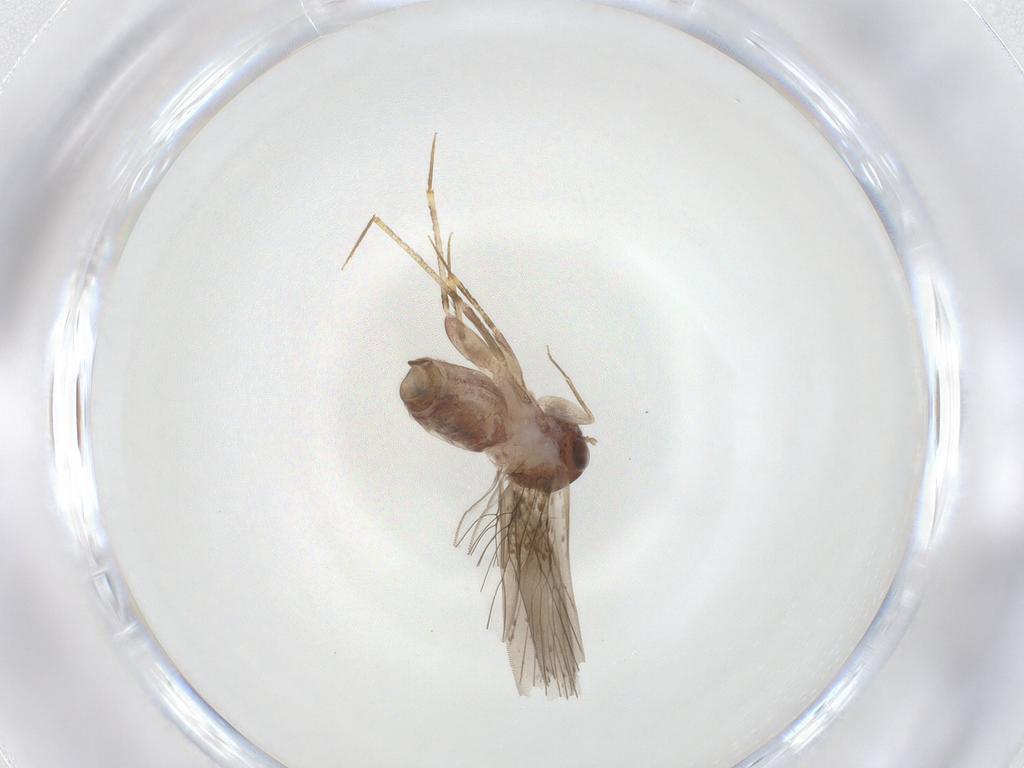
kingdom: Animalia
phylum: Arthropoda
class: Insecta
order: Psocodea
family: Lepidopsocidae
